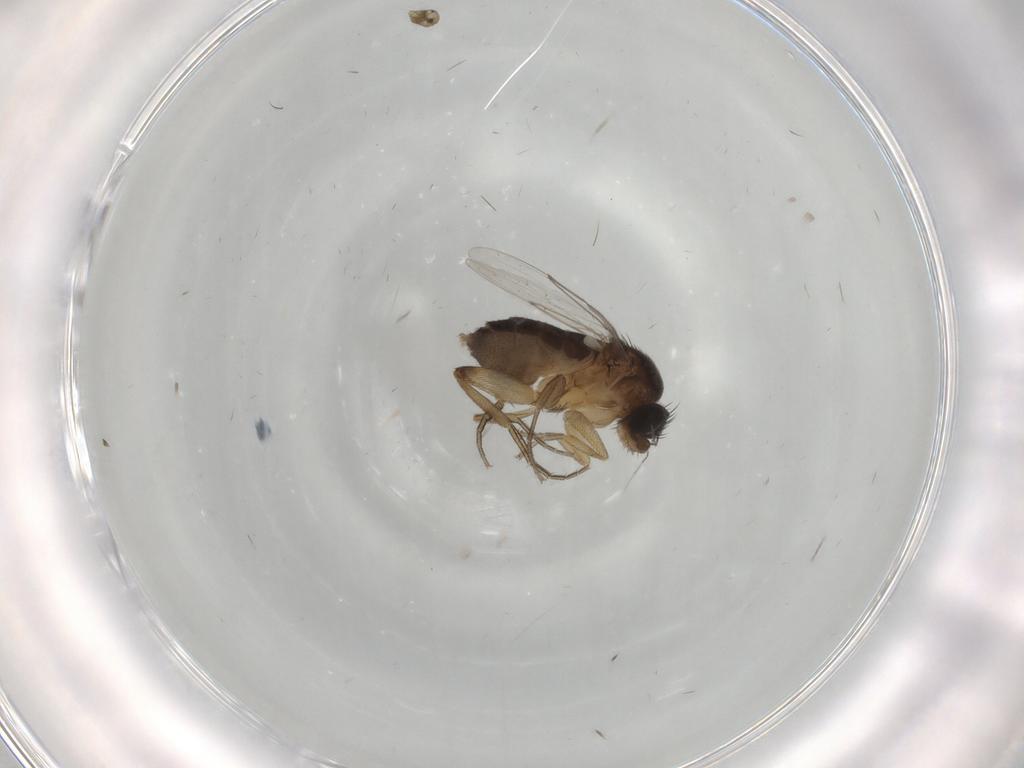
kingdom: Animalia
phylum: Arthropoda
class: Insecta
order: Diptera
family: Phoridae
